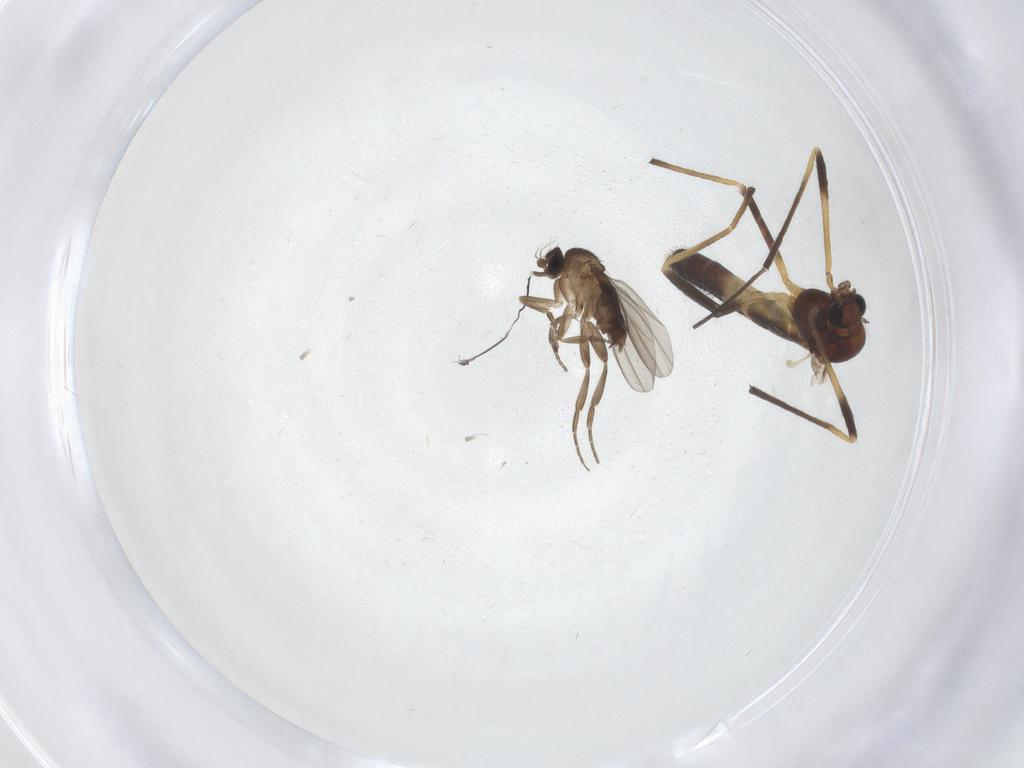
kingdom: Animalia
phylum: Arthropoda
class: Insecta
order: Diptera
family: Phoridae
